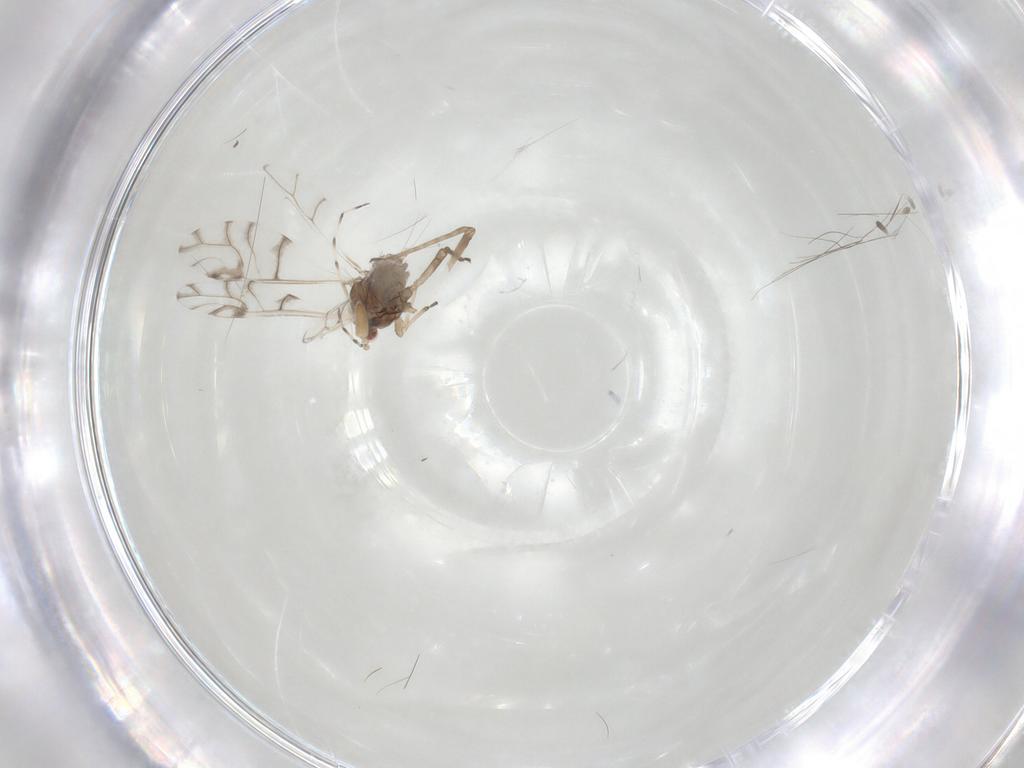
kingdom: Animalia
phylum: Arthropoda
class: Insecta
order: Hemiptera
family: Aphididae
